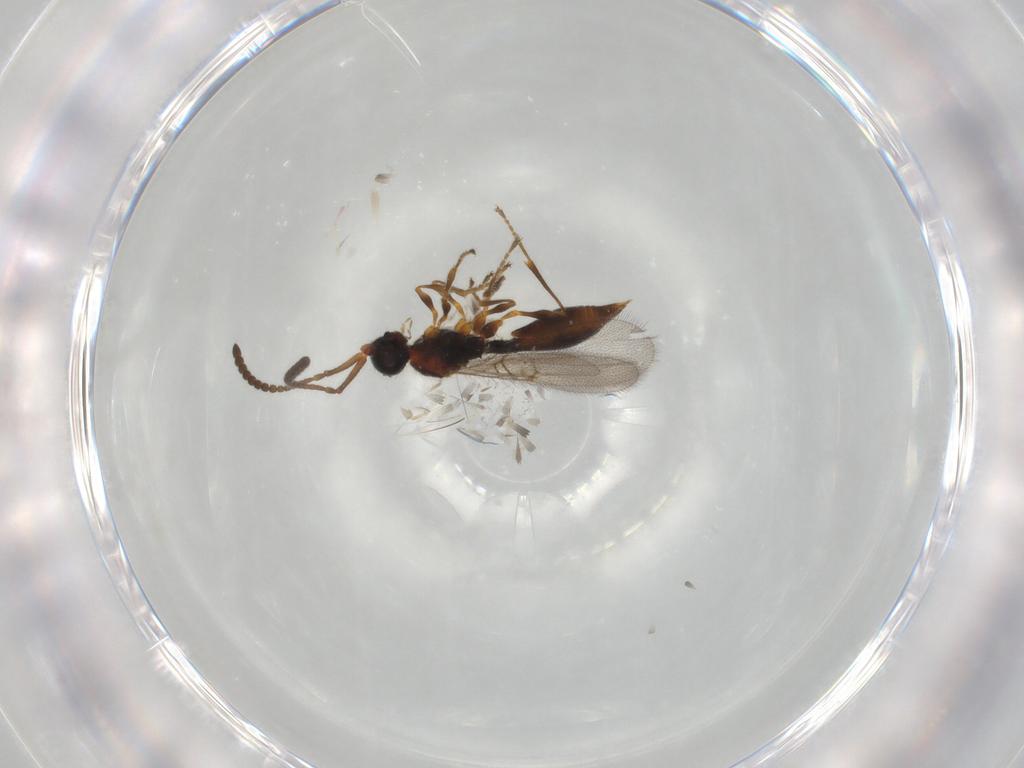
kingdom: Animalia
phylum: Arthropoda
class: Insecta
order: Hymenoptera
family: Diapriidae
